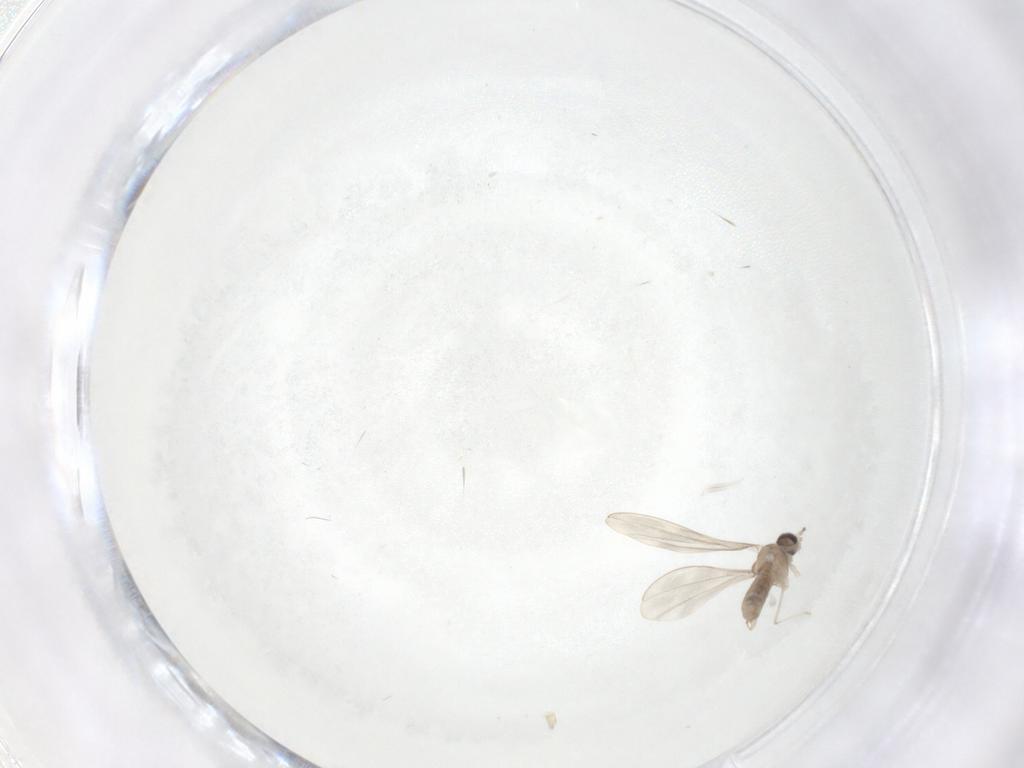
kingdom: Animalia
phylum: Arthropoda
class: Insecta
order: Diptera
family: Cecidomyiidae
